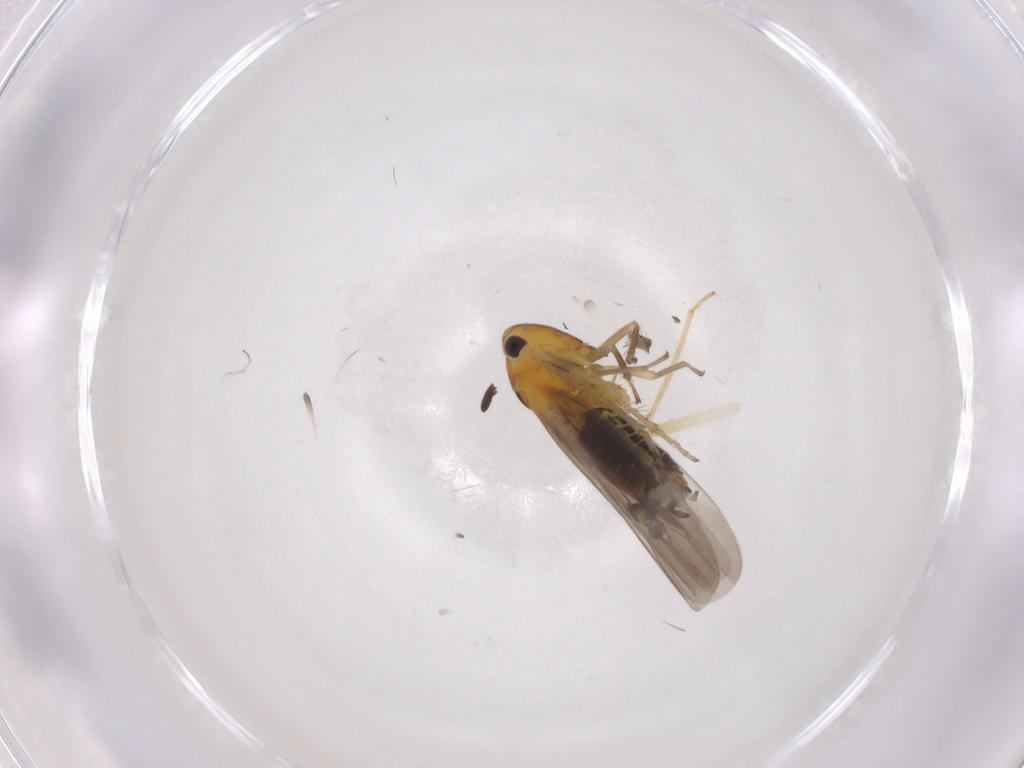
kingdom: Animalia
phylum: Arthropoda
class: Insecta
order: Hemiptera
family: Cicadellidae
